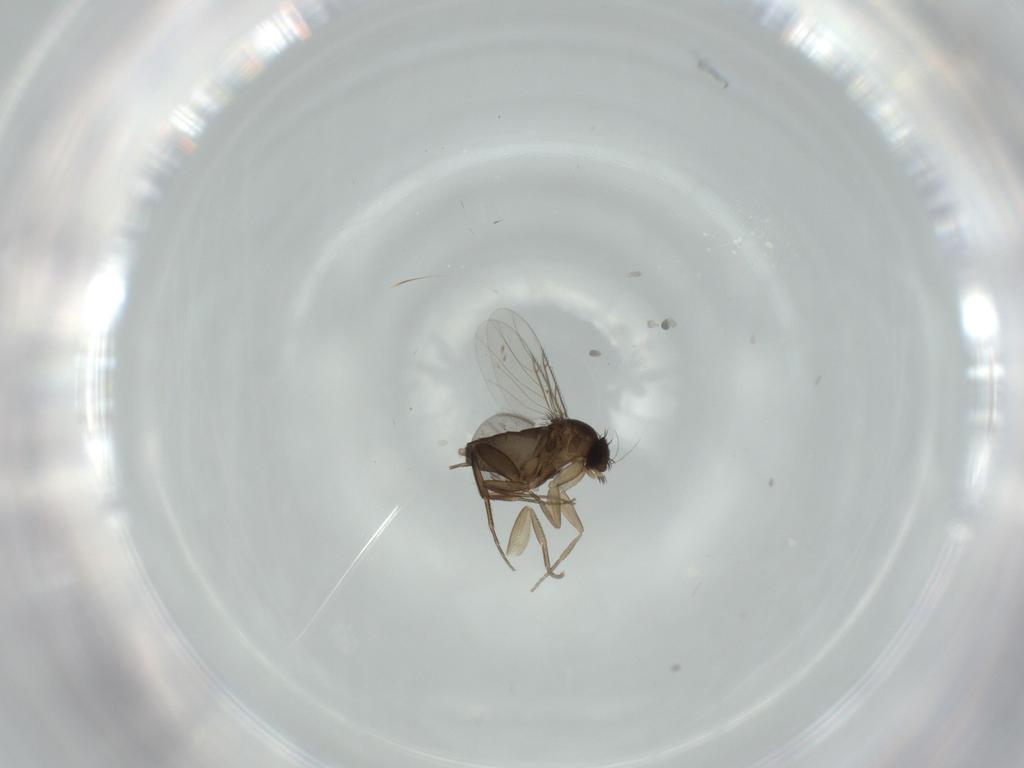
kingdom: Animalia
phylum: Arthropoda
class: Insecta
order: Diptera
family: Phoridae
